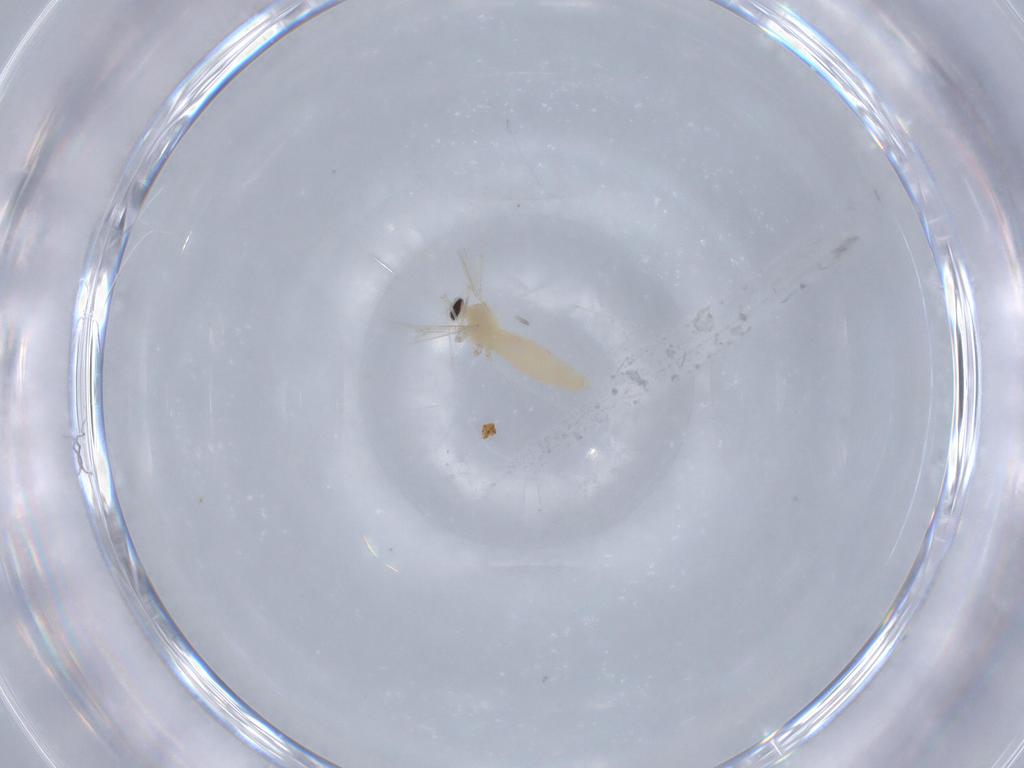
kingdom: Animalia
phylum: Arthropoda
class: Insecta
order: Diptera
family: Cecidomyiidae
